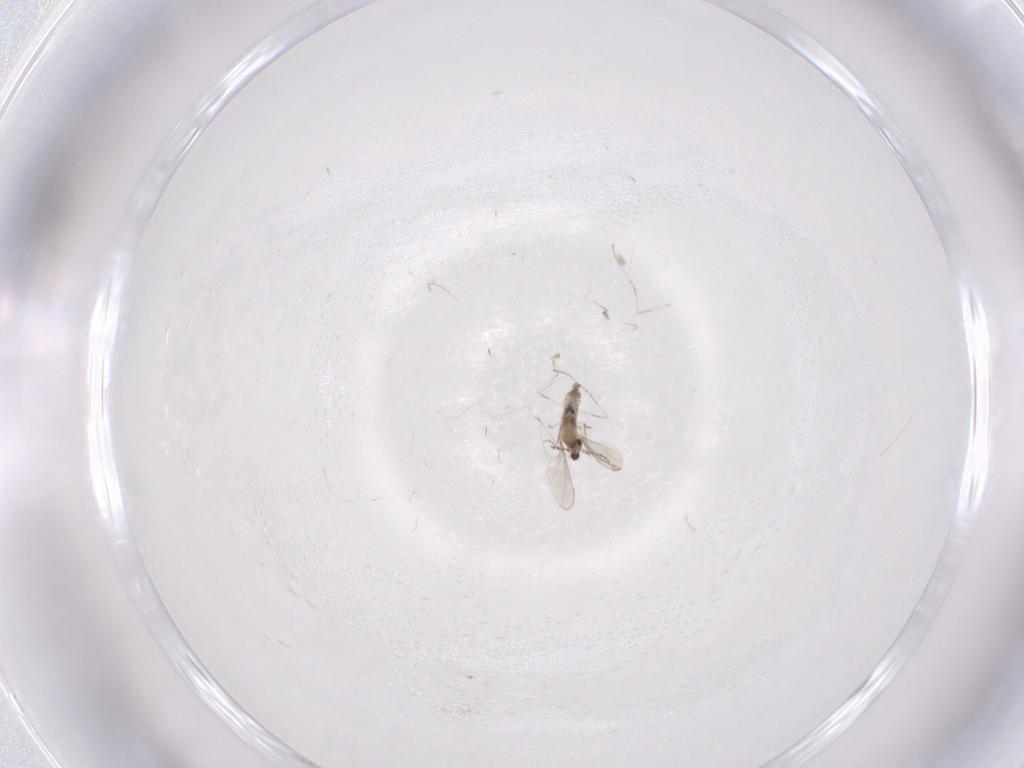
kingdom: Animalia
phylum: Arthropoda
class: Insecta
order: Diptera
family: Cecidomyiidae
